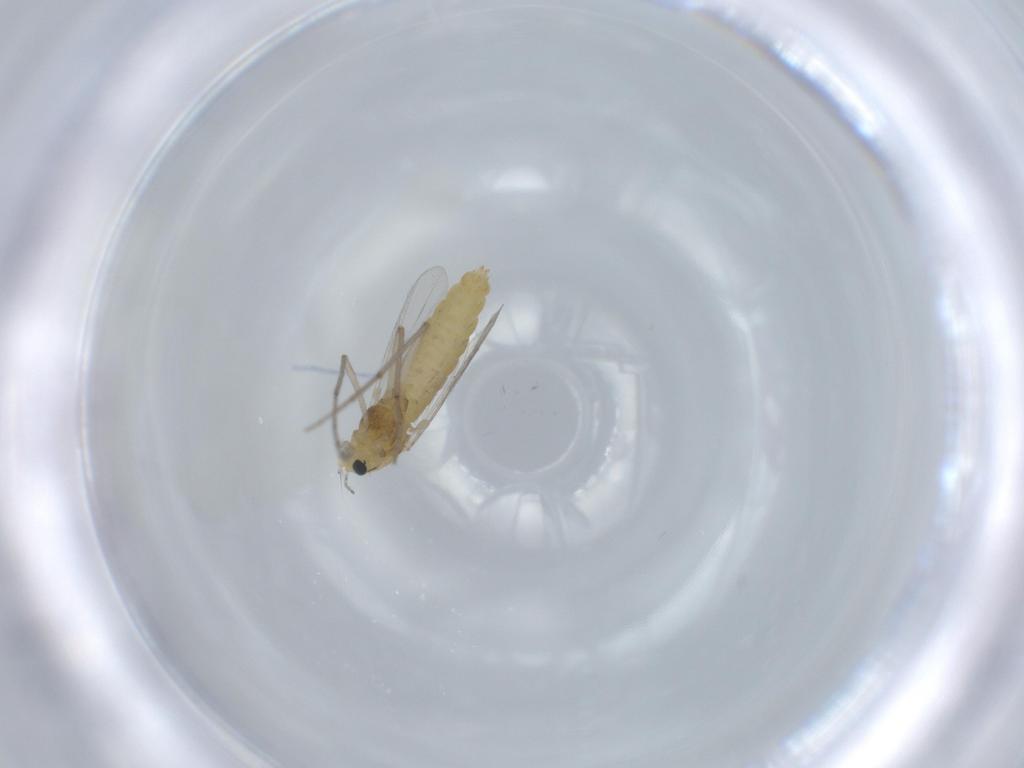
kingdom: Animalia
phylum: Arthropoda
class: Insecta
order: Diptera
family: Chironomidae
